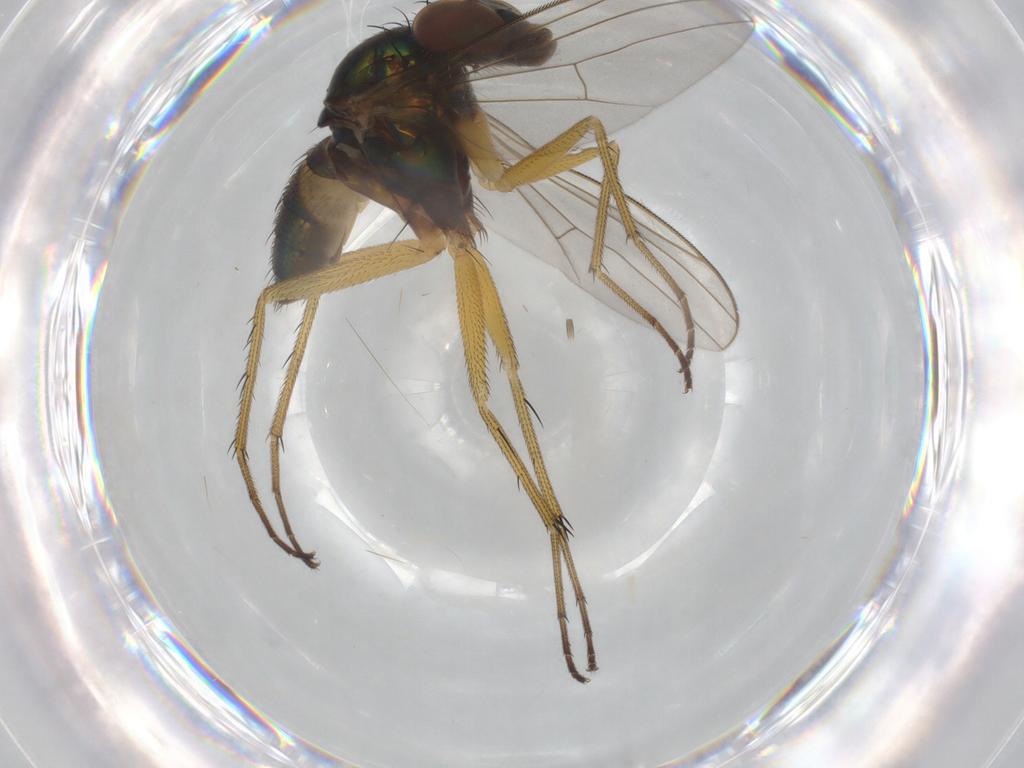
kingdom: Animalia
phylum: Arthropoda
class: Insecta
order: Diptera
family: Cecidomyiidae
